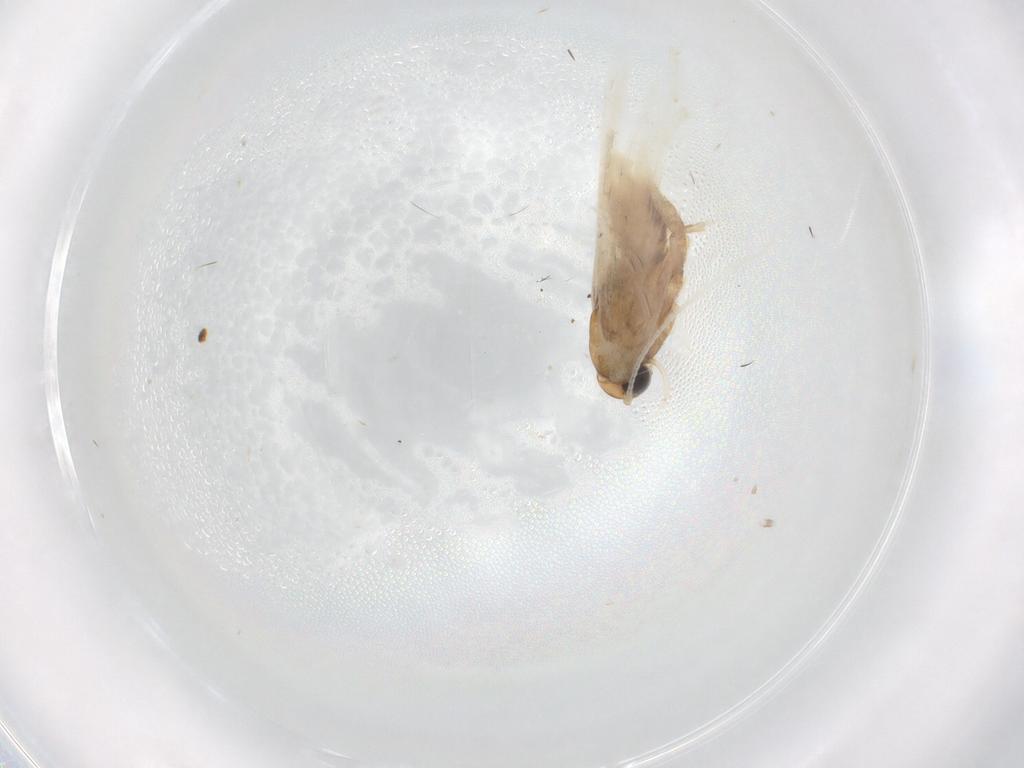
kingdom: Animalia
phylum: Arthropoda
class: Insecta
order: Lepidoptera
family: Gelechiidae
